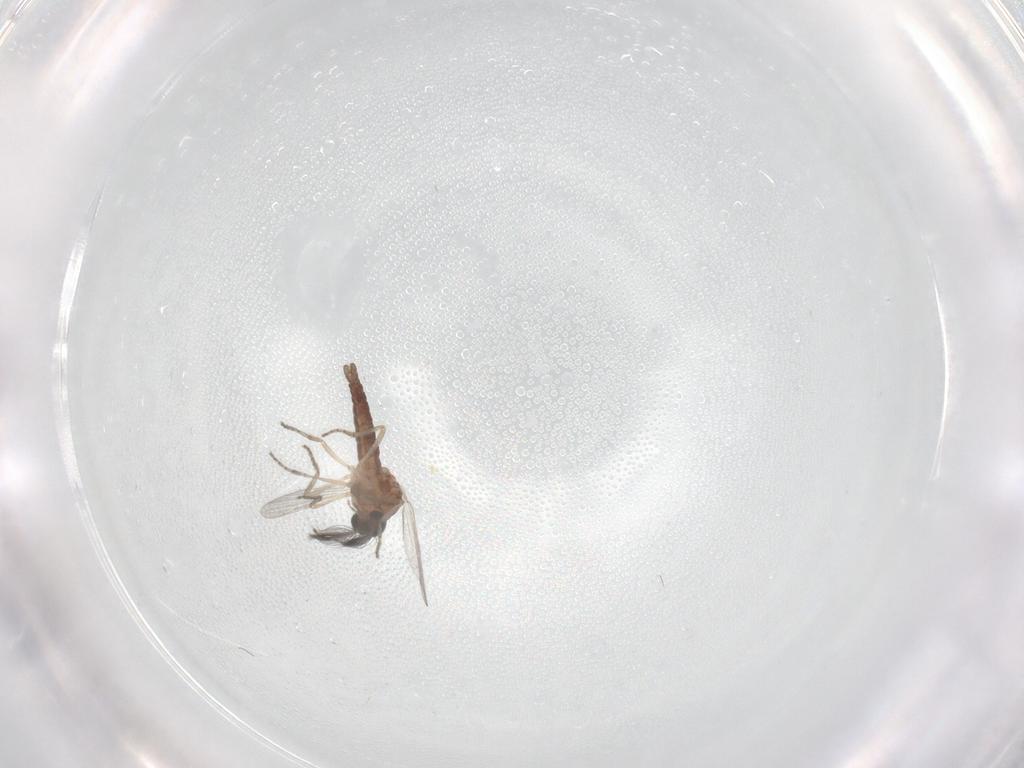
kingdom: Animalia
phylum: Arthropoda
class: Insecta
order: Diptera
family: Ceratopogonidae
